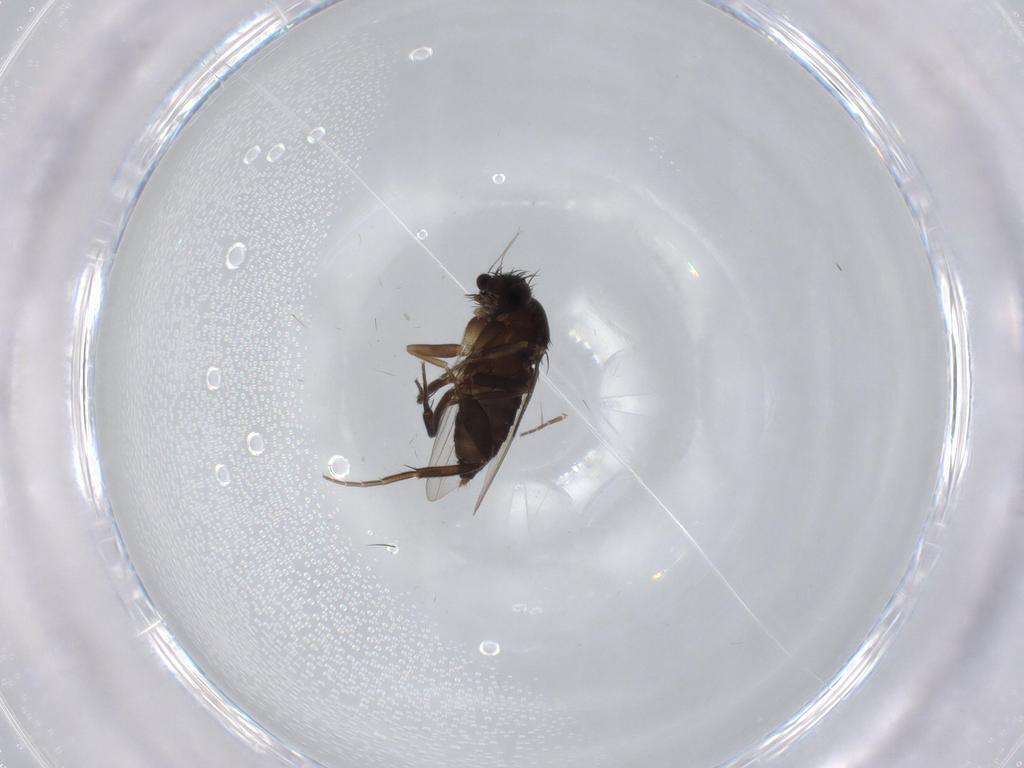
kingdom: Animalia
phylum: Arthropoda
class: Insecta
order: Diptera
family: Phoridae
